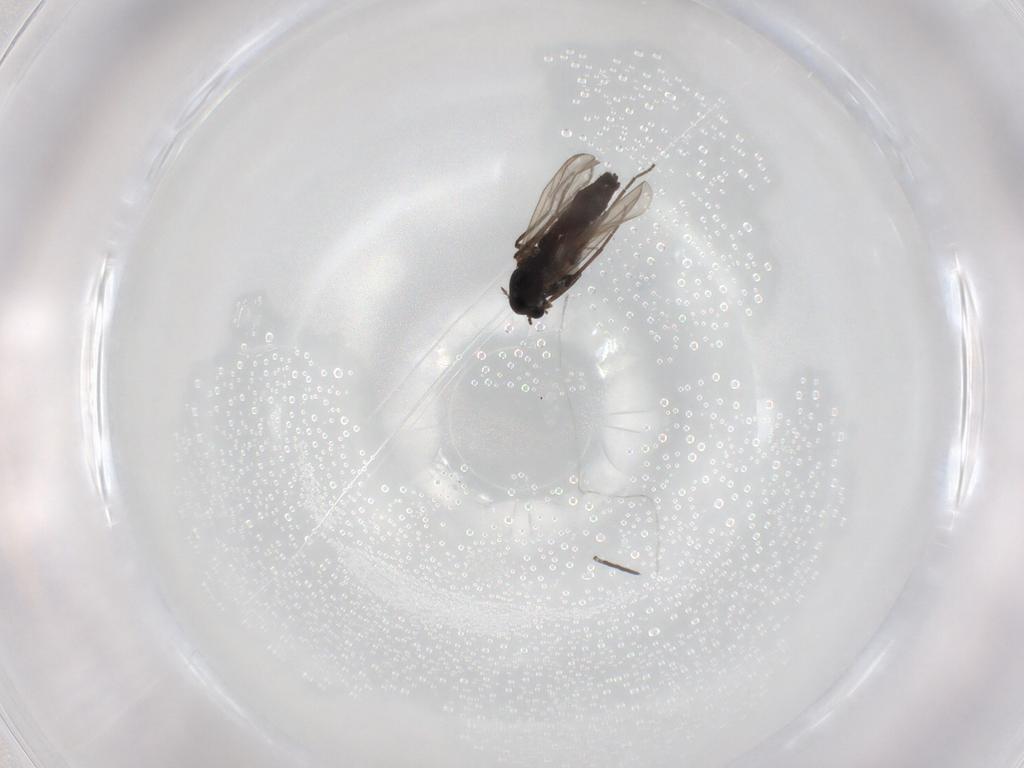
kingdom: Animalia
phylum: Arthropoda
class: Insecta
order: Diptera
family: Chironomidae
